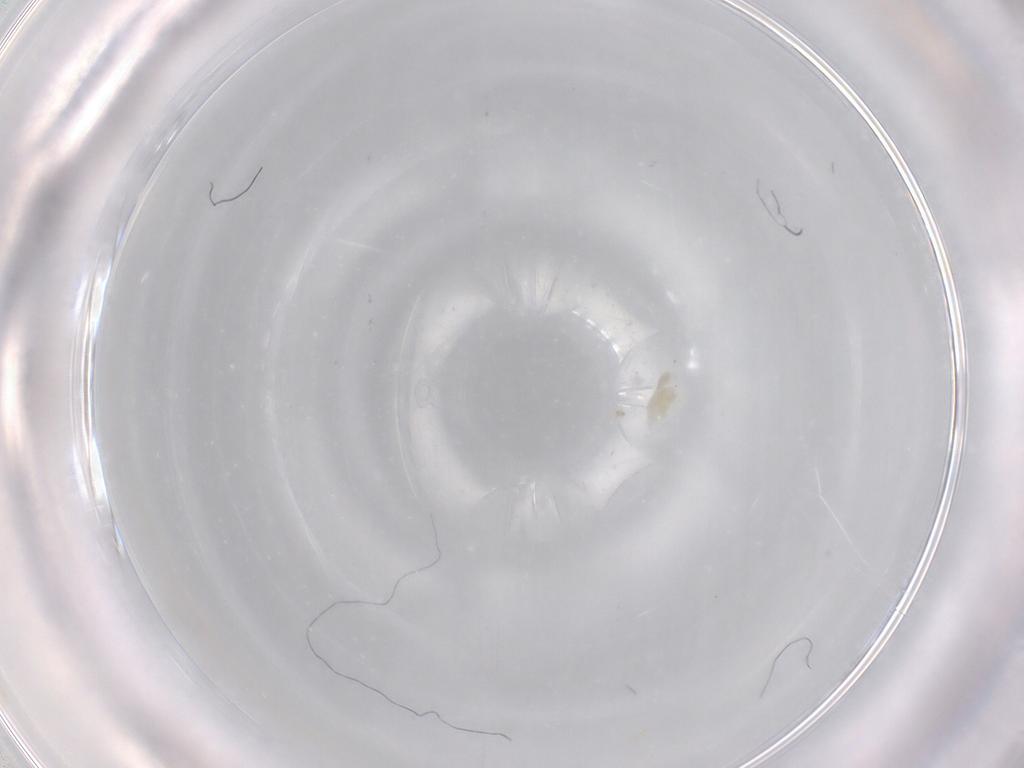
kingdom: Animalia
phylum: Arthropoda
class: Arachnida
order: Trombidiformes
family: Eupodidae
